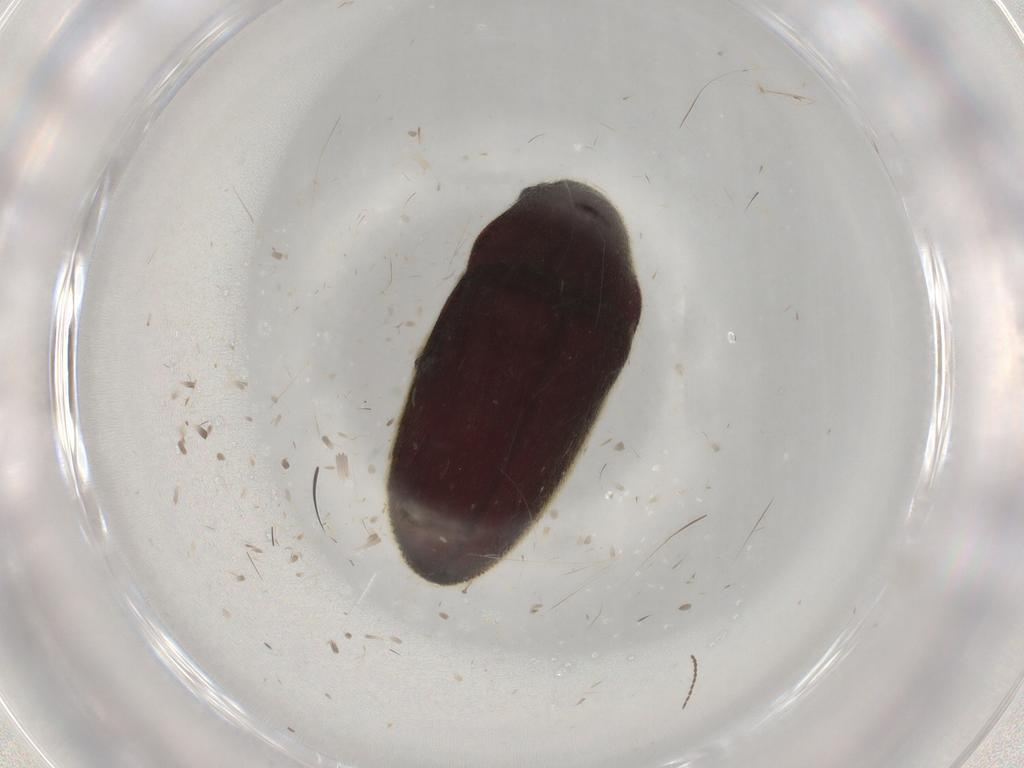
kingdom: Animalia
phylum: Arthropoda
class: Insecta
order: Coleoptera
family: Throscidae
